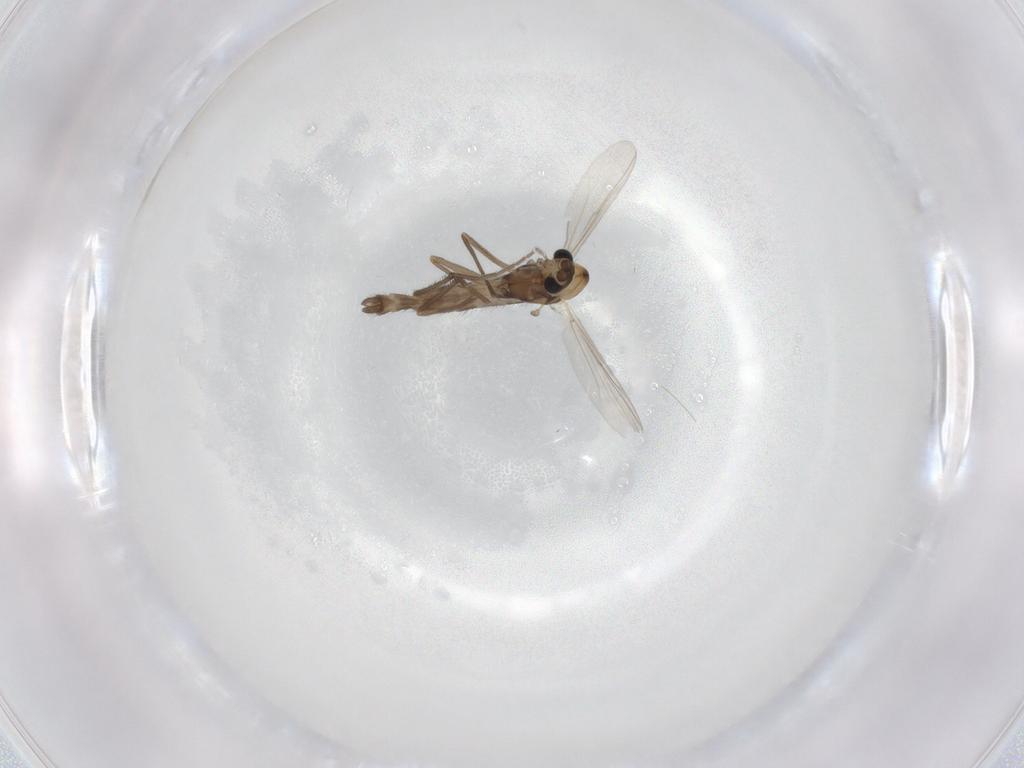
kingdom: Animalia
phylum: Arthropoda
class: Insecta
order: Diptera
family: Chironomidae
